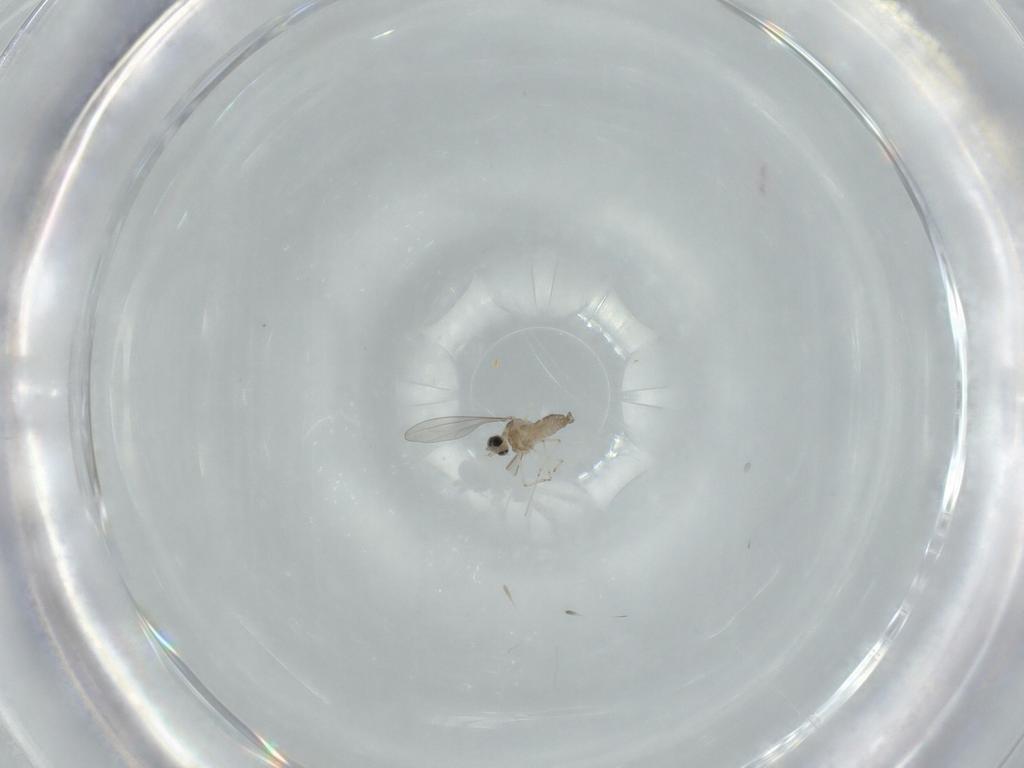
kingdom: Animalia
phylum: Arthropoda
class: Insecta
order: Diptera
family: Cecidomyiidae
